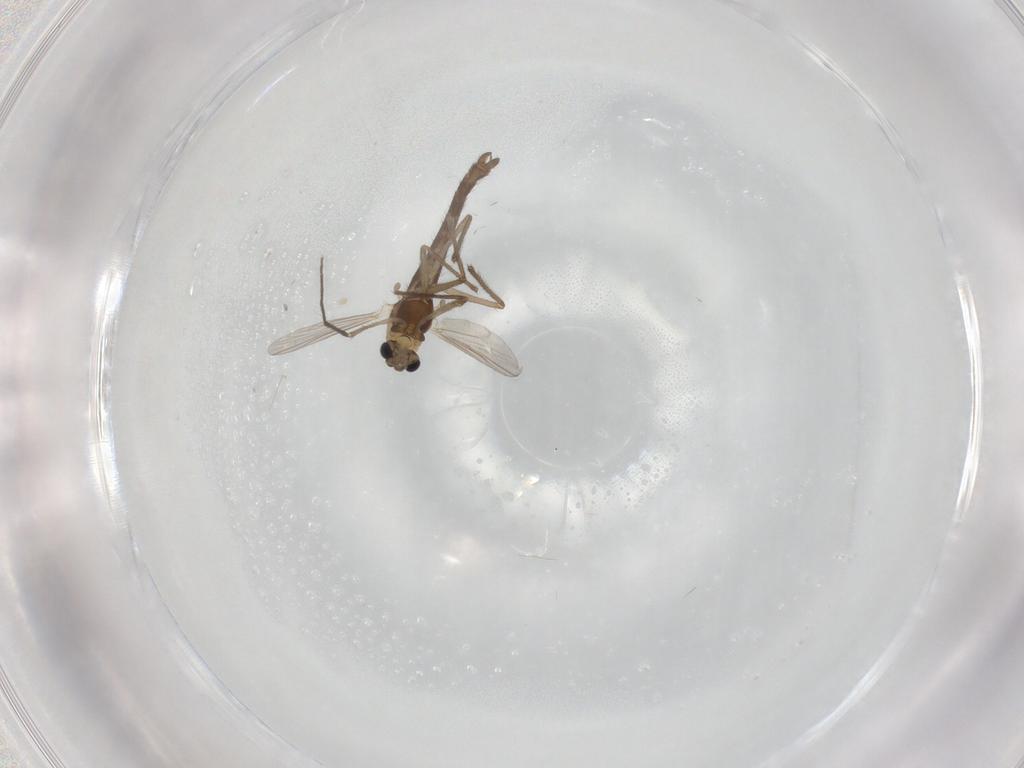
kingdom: Animalia
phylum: Arthropoda
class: Insecta
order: Diptera
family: Chironomidae
